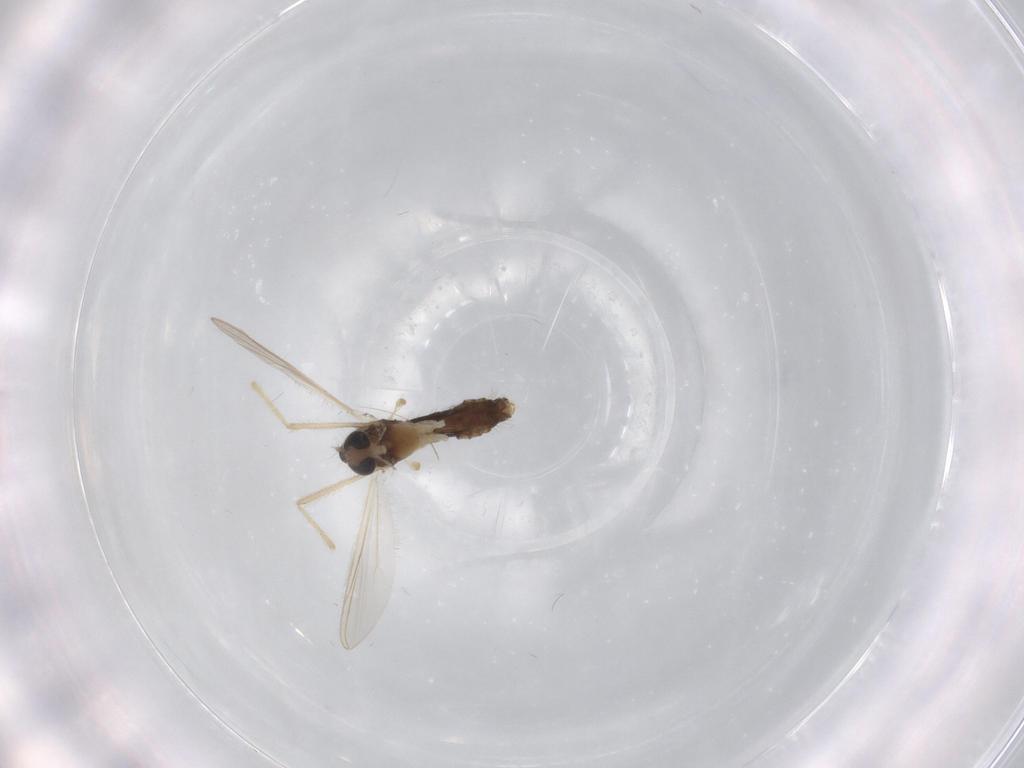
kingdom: Animalia
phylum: Arthropoda
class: Insecta
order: Diptera
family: Chironomidae
